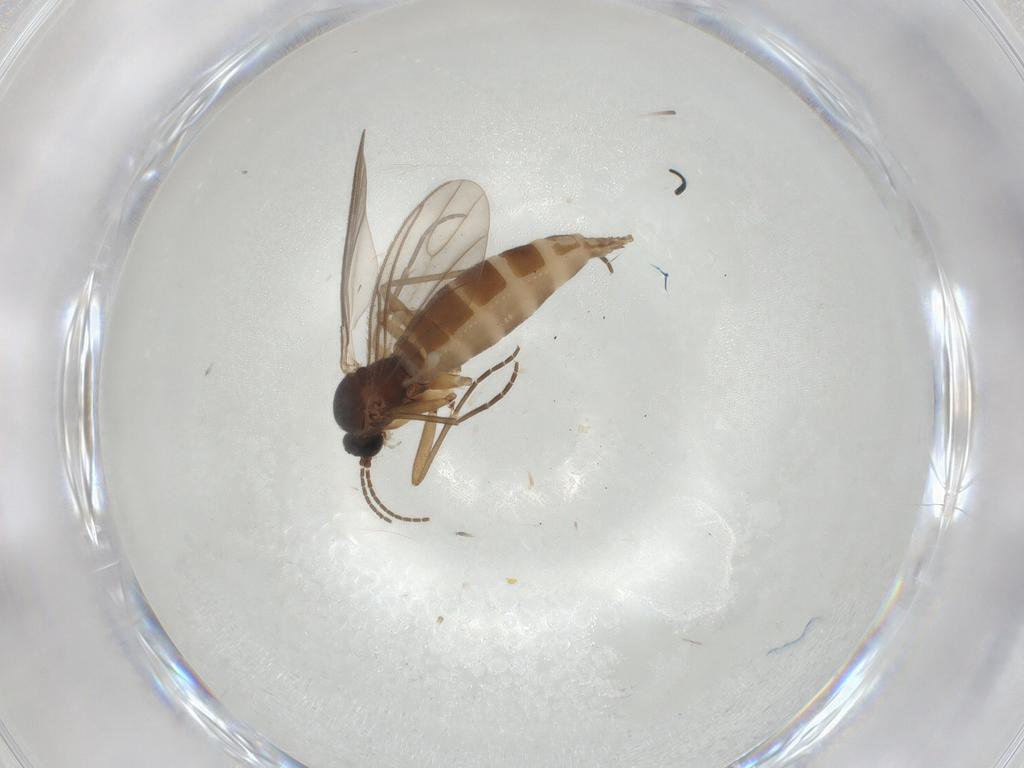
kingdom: Animalia
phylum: Arthropoda
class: Insecta
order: Diptera
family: Sciaridae
